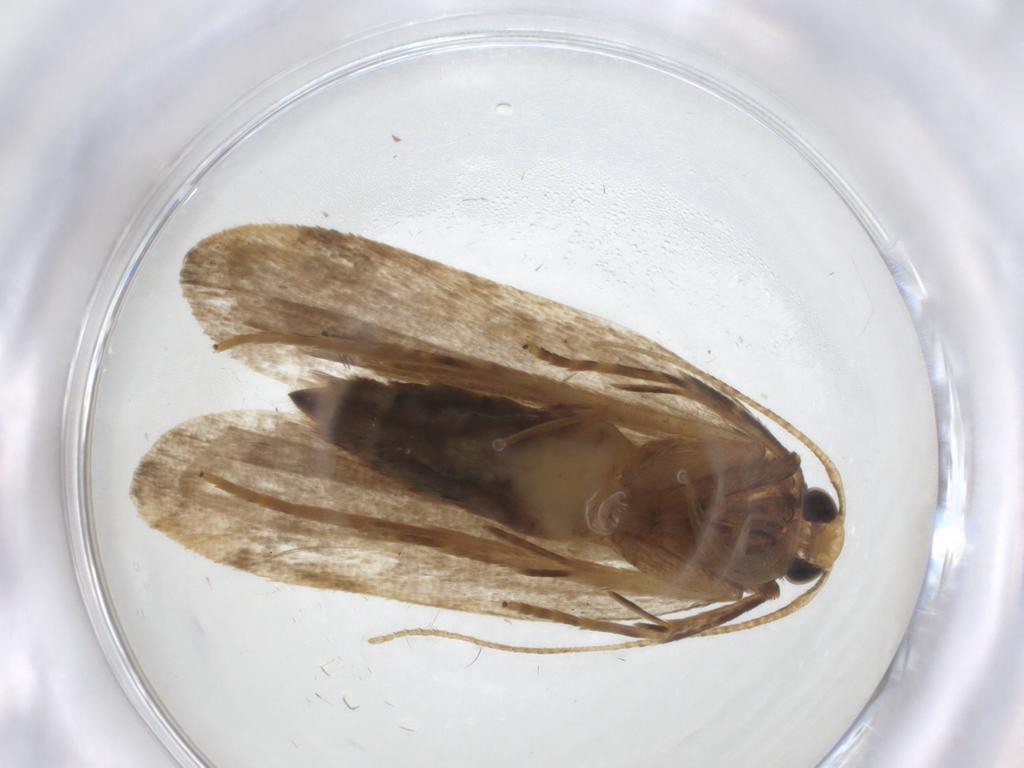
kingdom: Animalia
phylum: Arthropoda
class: Insecta
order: Lepidoptera
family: Autostichidae
